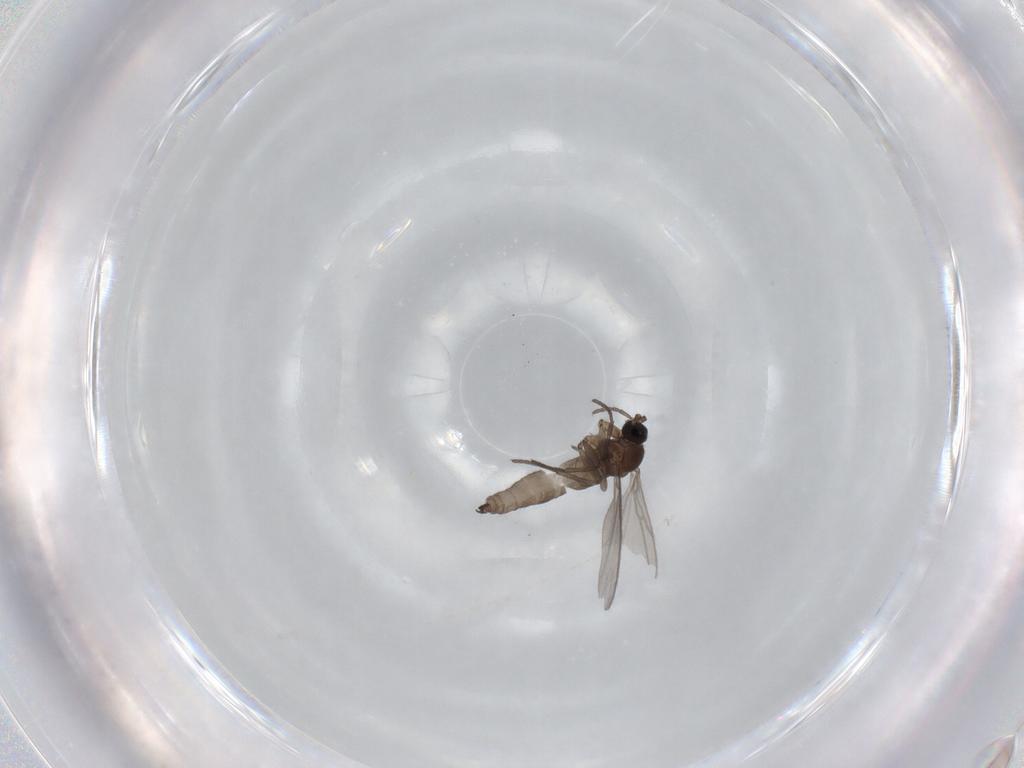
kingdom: Animalia
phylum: Arthropoda
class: Insecta
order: Diptera
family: Sciaridae
